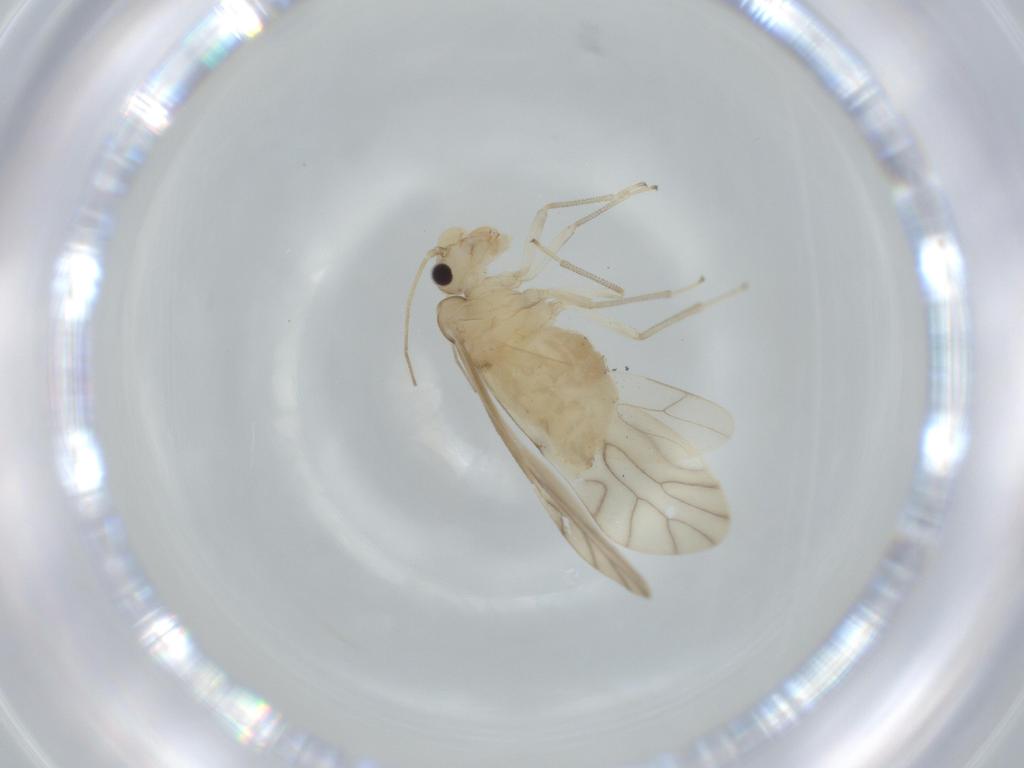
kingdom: Animalia
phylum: Arthropoda
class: Insecta
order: Psocodea
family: Caeciliusidae
